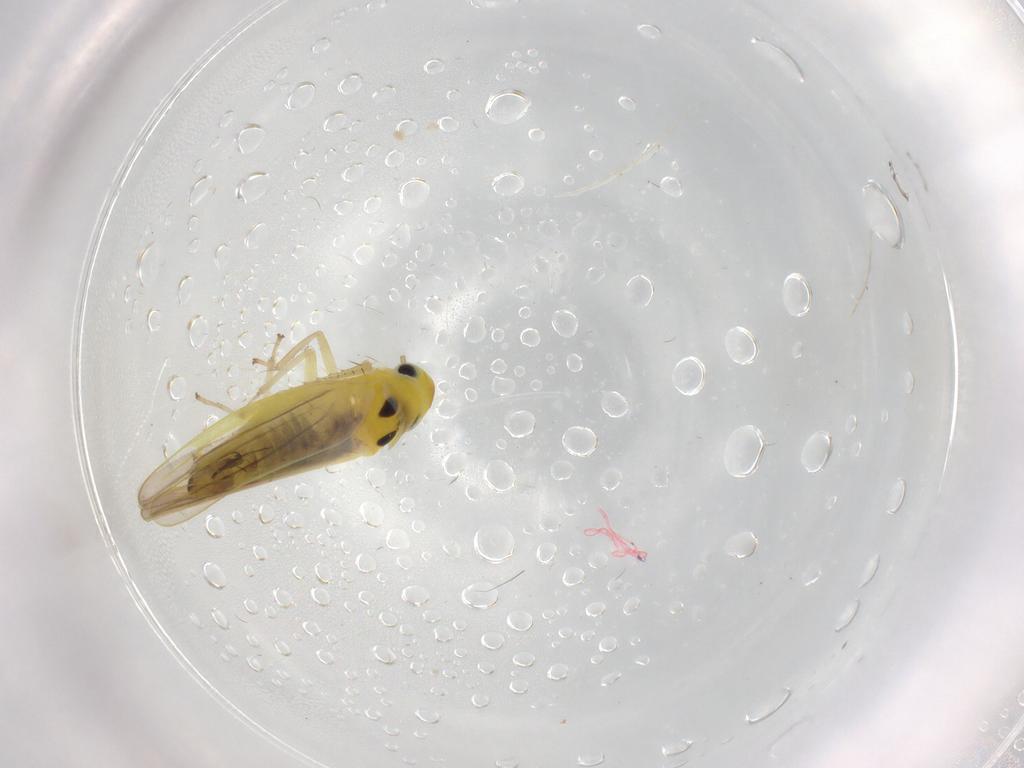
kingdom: Animalia
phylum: Arthropoda
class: Insecta
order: Hemiptera
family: Cicadellidae
